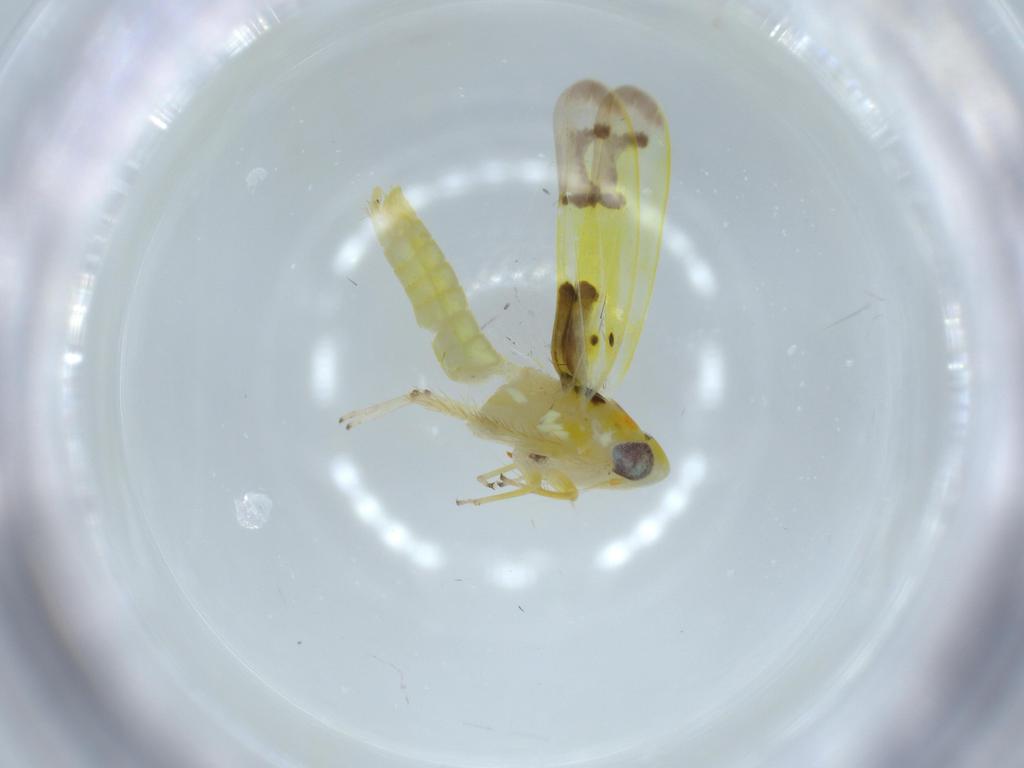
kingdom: Animalia
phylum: Arthropoda
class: Insecta
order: Hemiptera
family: Cicadellidae
